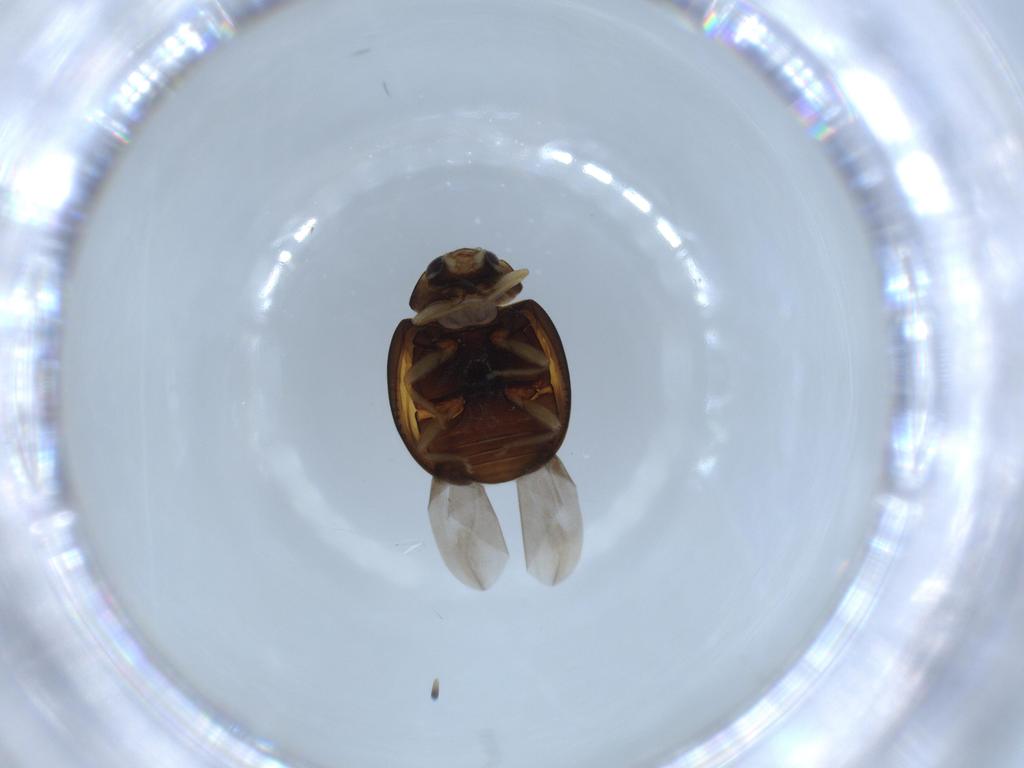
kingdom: Animalia
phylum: Arthropoda
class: Insecta
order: Coleoptera
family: Coccinellidae
